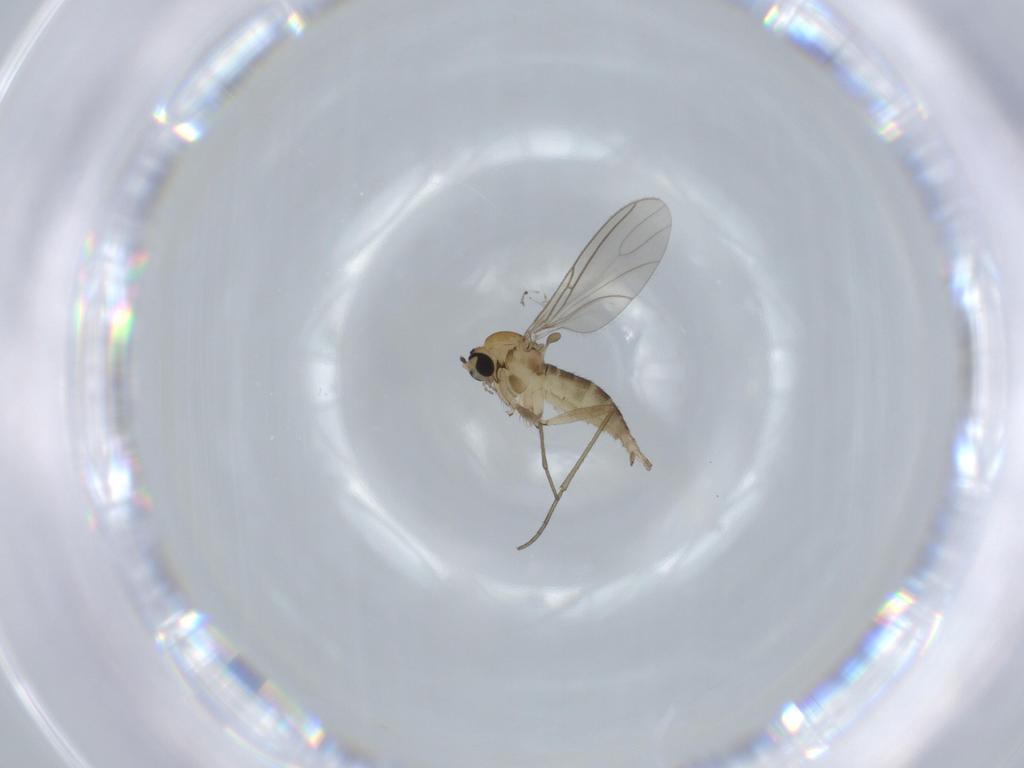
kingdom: Animalia
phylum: Arthropoda
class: Insecta
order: Diptera
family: Sciaridae
